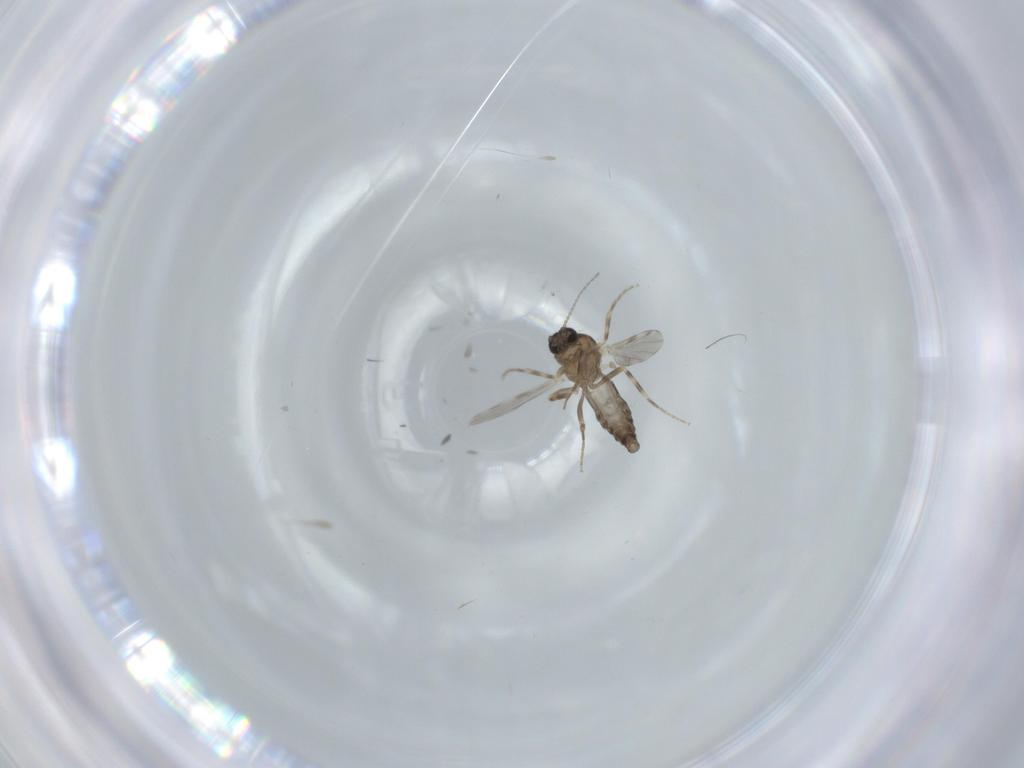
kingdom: Animalia
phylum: Arthropoda
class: Insecta
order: Diptera
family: Ceratopogonidae
